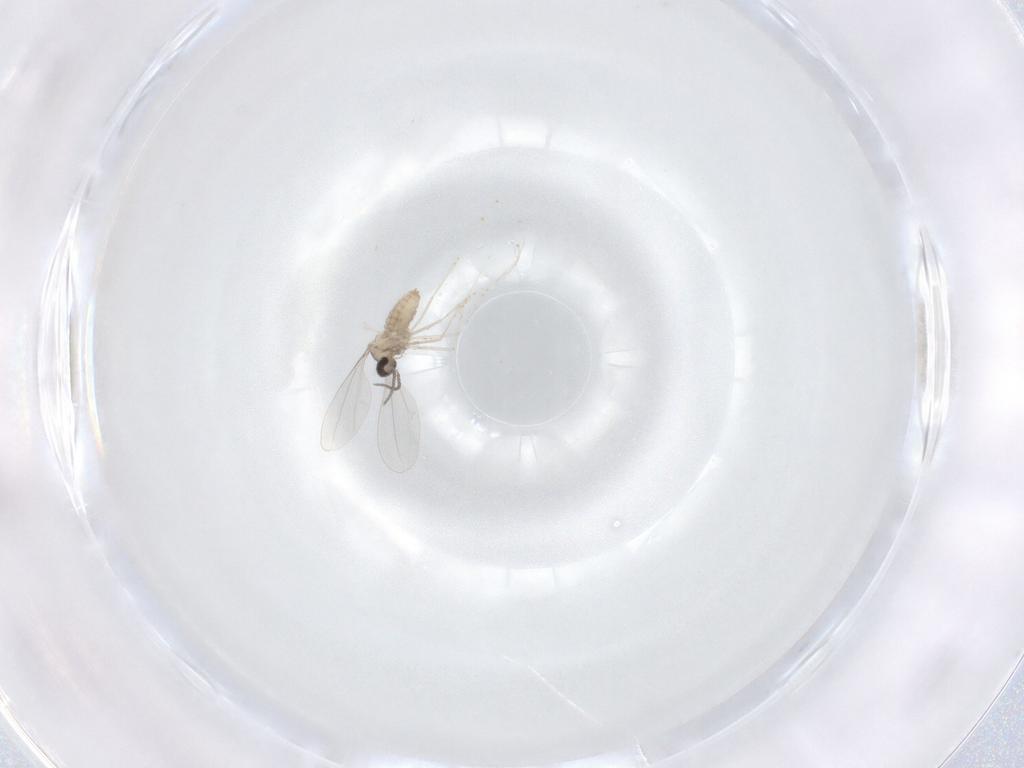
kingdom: Animalia
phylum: Arthropoda
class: Insecta
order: Diptera
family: Cecidomyiidae
